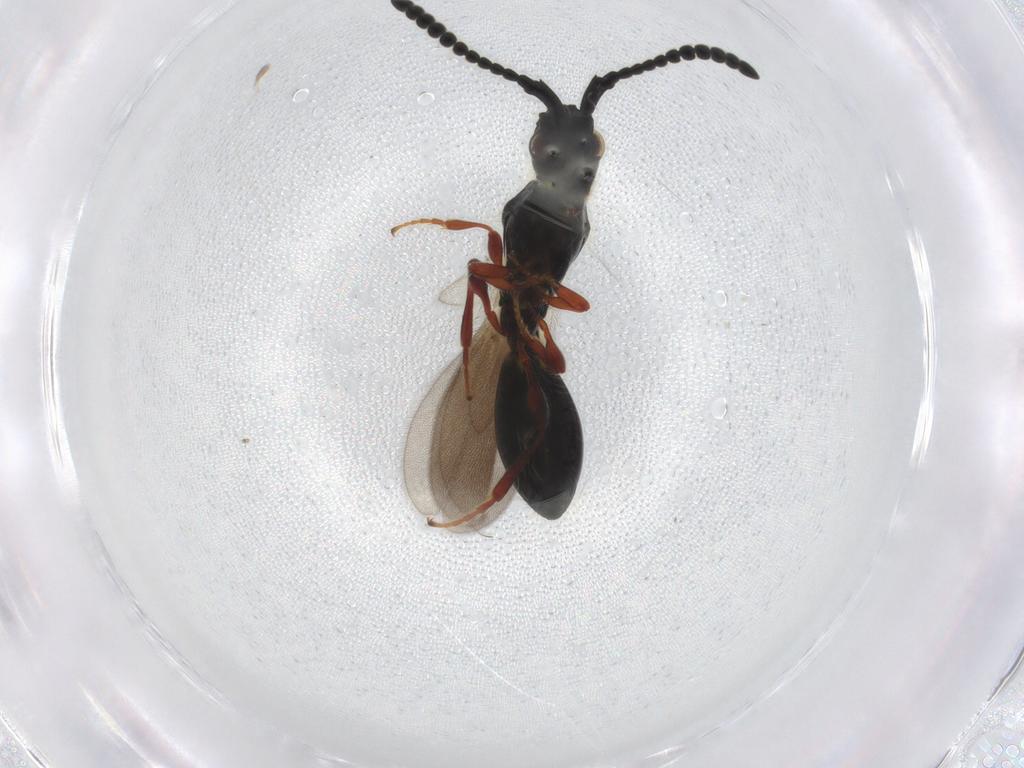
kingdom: Animalia
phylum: Arthropoda
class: Insecta
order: Hymenoptera
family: Diapriidae
